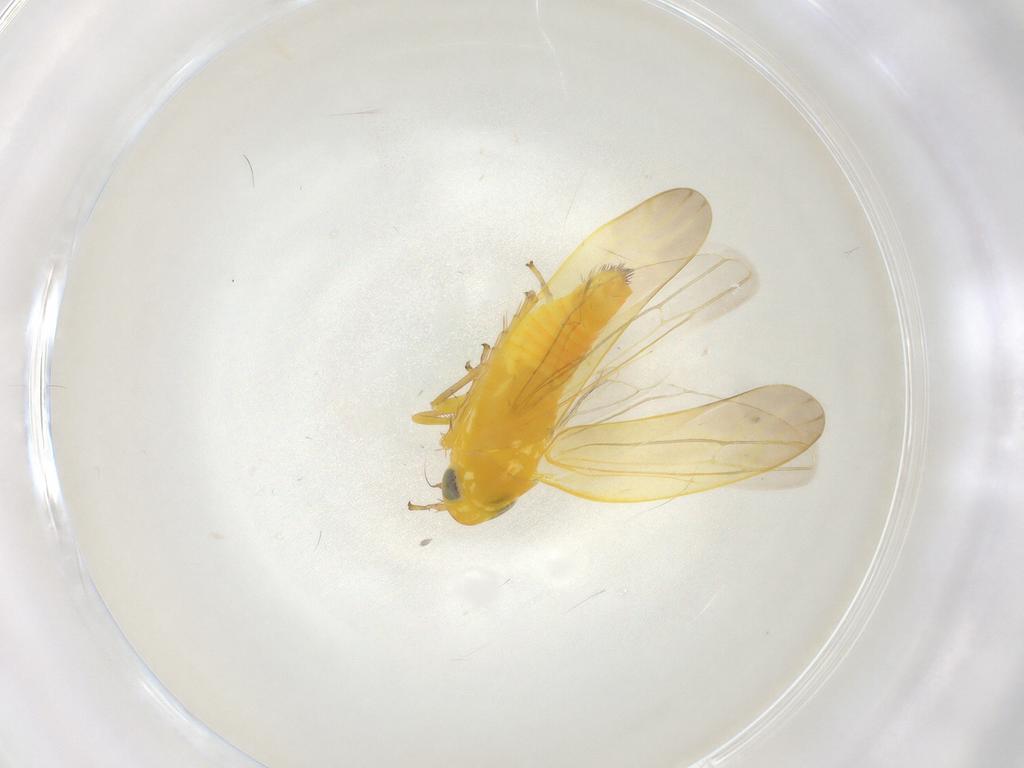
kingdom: Animalia
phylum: Arthropoda
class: Insecta
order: Hemiptera
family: Cicadellidae
